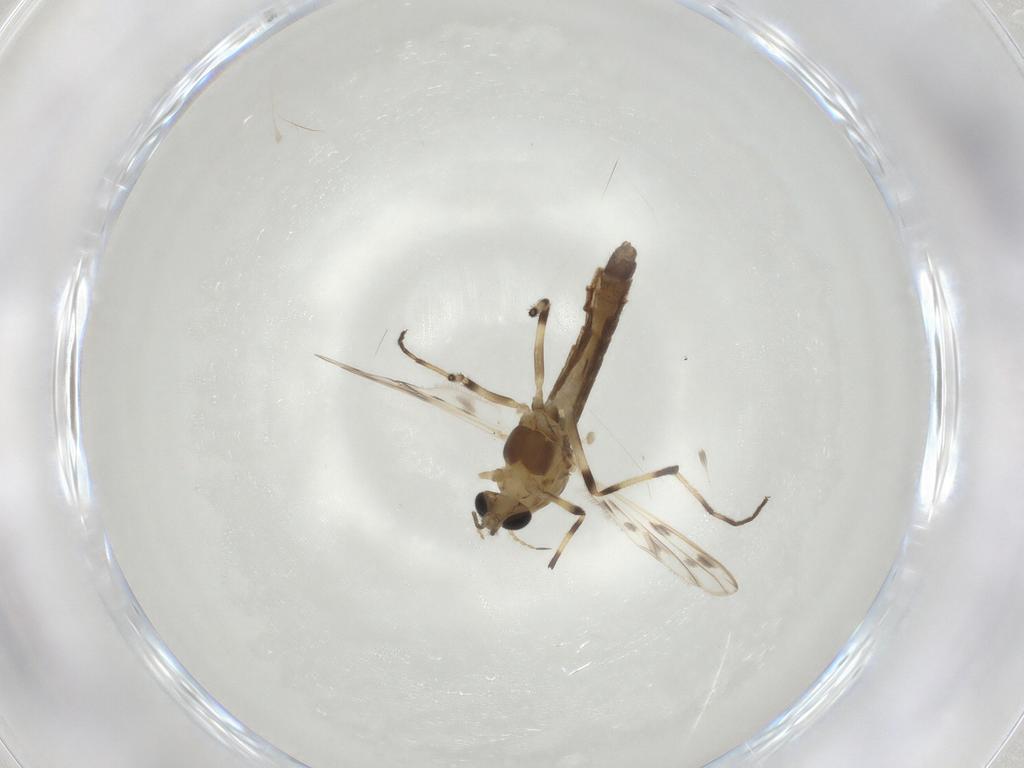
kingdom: Animalia
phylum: Arthropoda
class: Insecta
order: Diptera
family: Chironomidae
